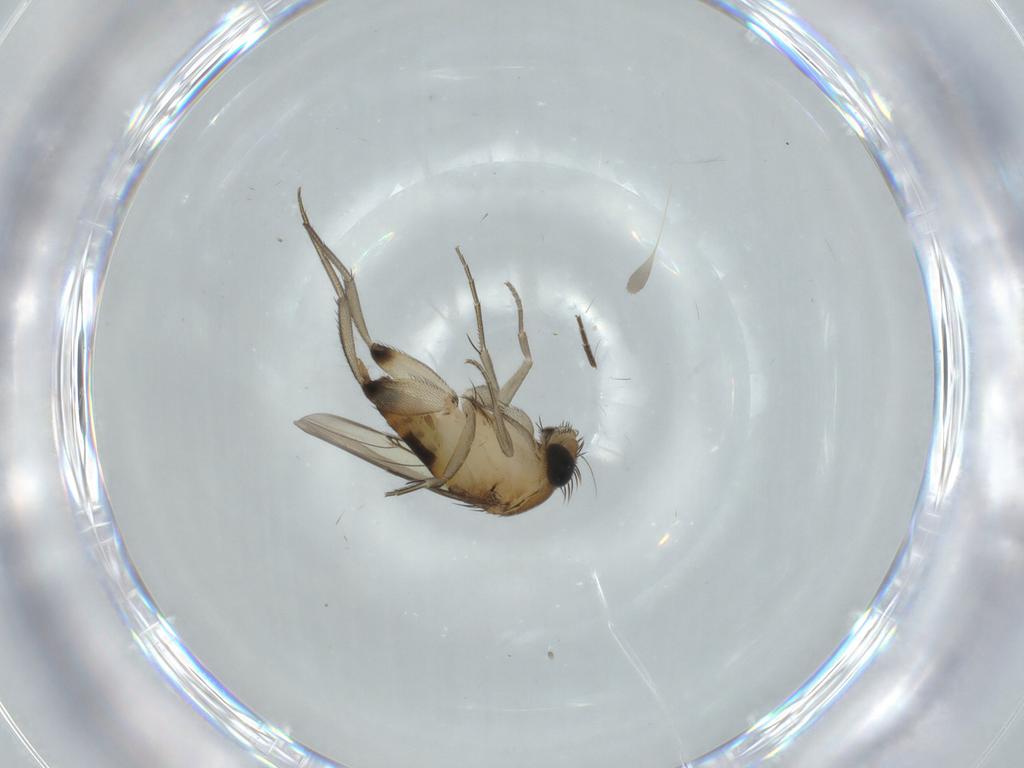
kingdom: Animalia
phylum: Arthropoda
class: Insecta
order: Diptera
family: Phoridae
